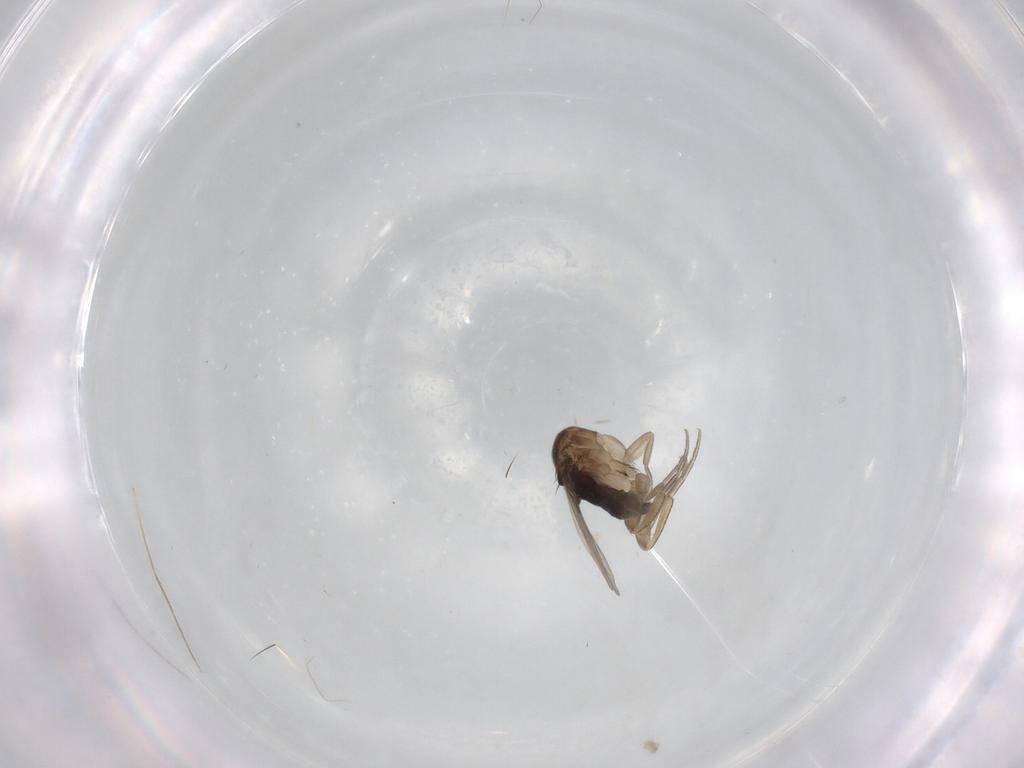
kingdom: Animalia
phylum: Arthropoda
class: Insecta
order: Diptera
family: Phoridae
